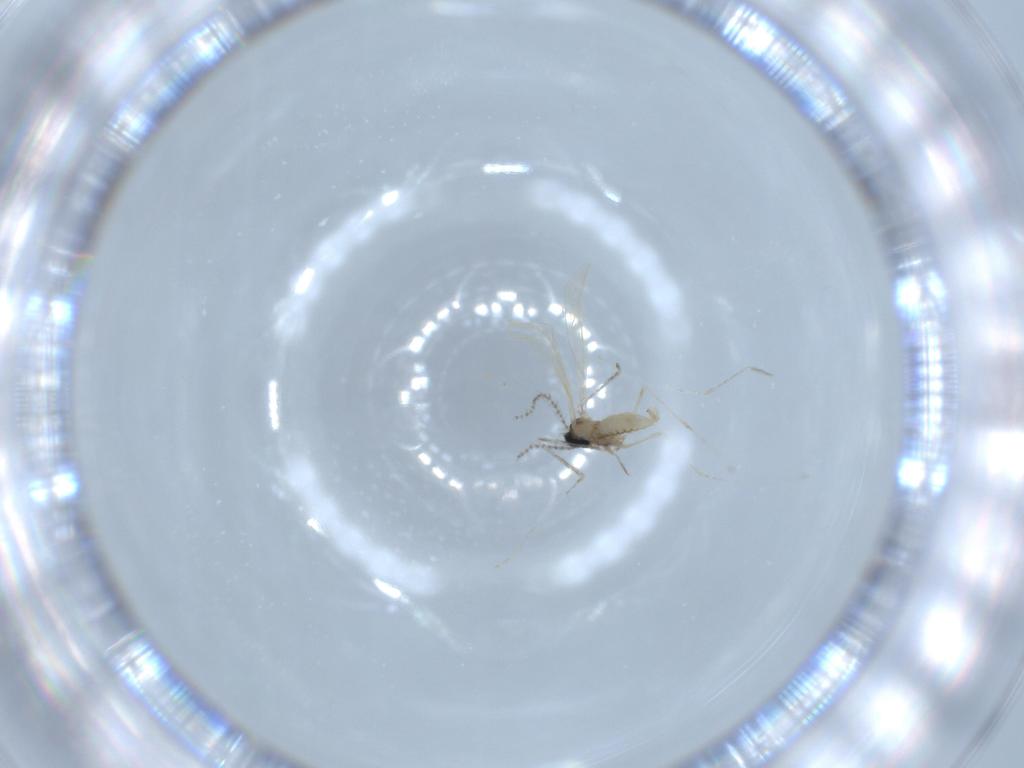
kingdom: Animalia
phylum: Arthropoda
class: Insecta
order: Diptera
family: Cecidomyiidae
